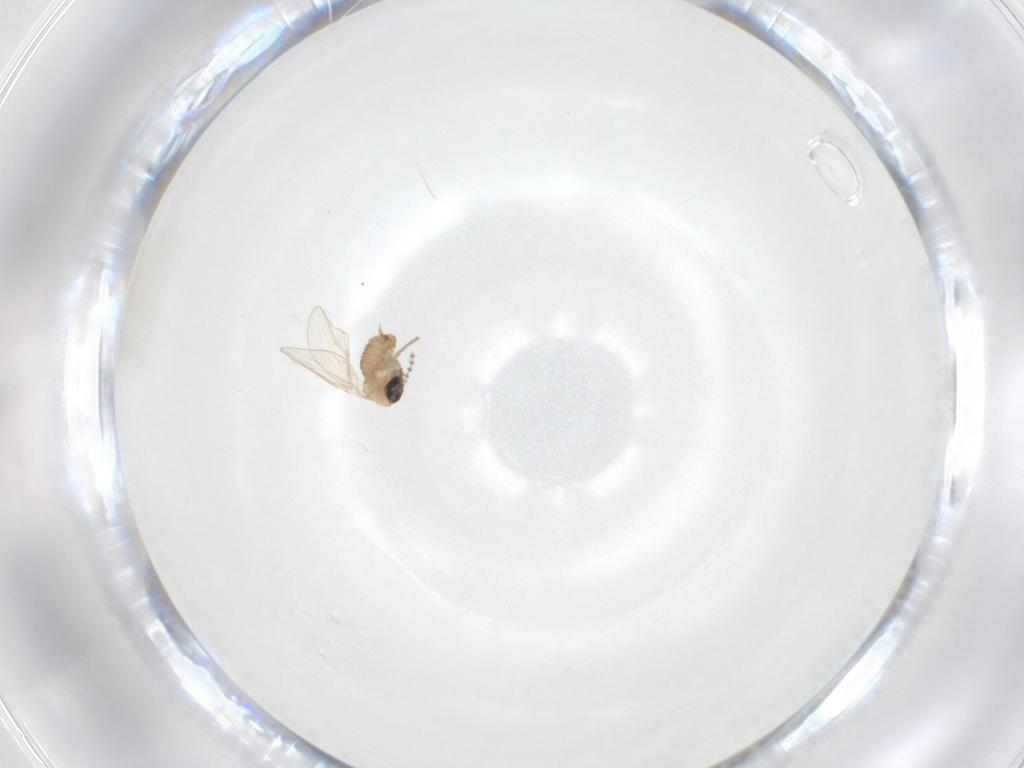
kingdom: Animalia
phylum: Arthropoda
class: Insecta
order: Diptera
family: Psychodidae
